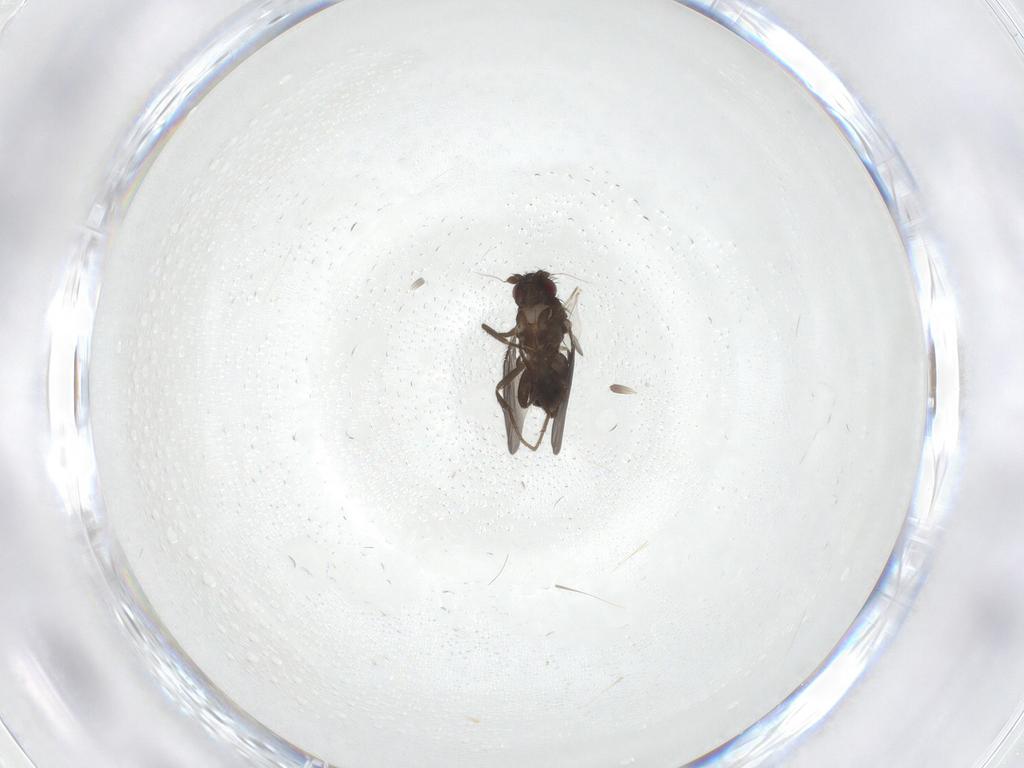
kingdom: Animalia
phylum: Arthropoda
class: Insecta
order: Diptera
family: Sphaeroceridae
